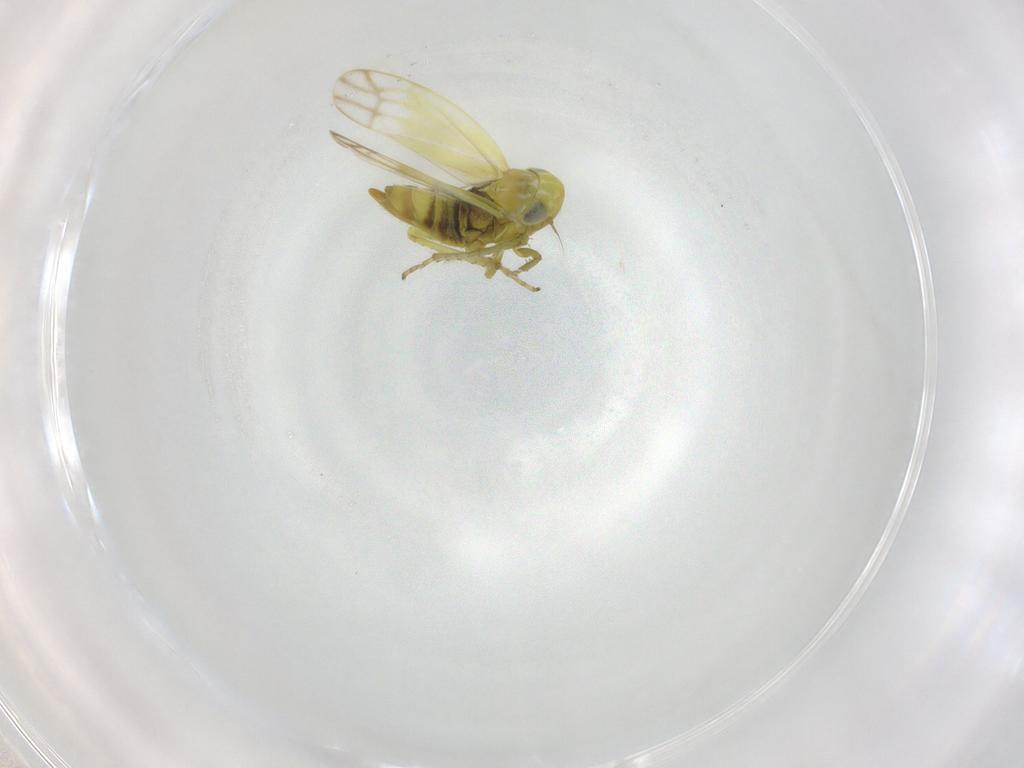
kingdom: Animalia
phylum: Arthropoda
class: Insecta
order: Hemiptera
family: Cicadellidae
